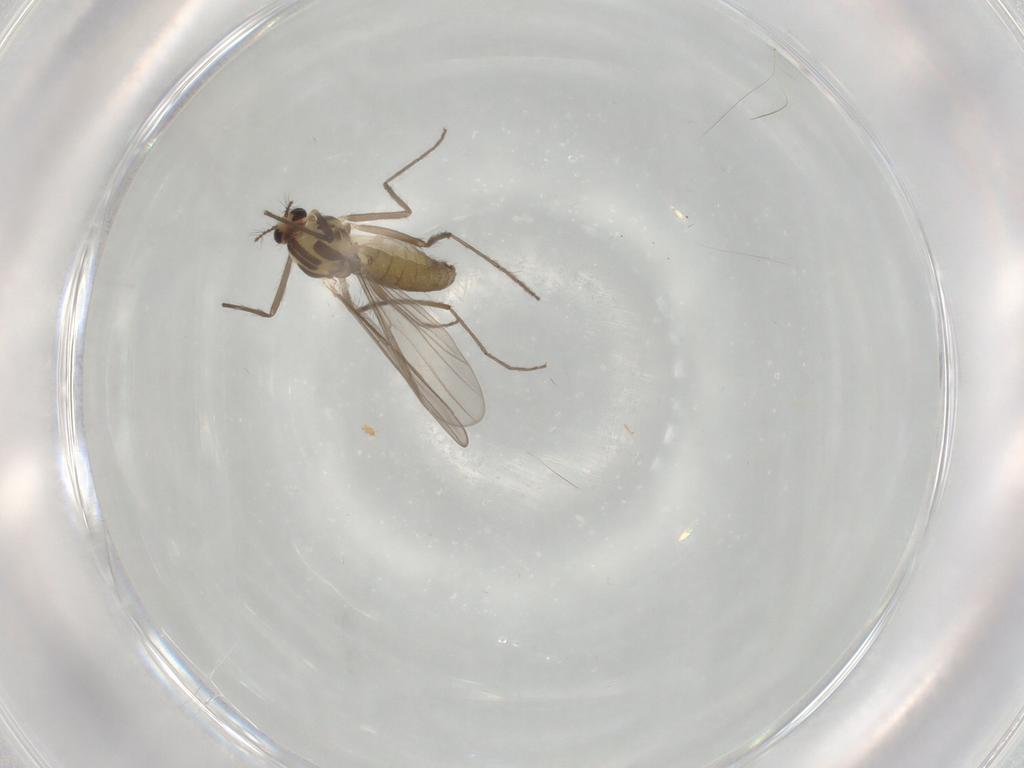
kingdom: Animalia
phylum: Arthropoda
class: Insecta
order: Diptera
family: Chironomidae
